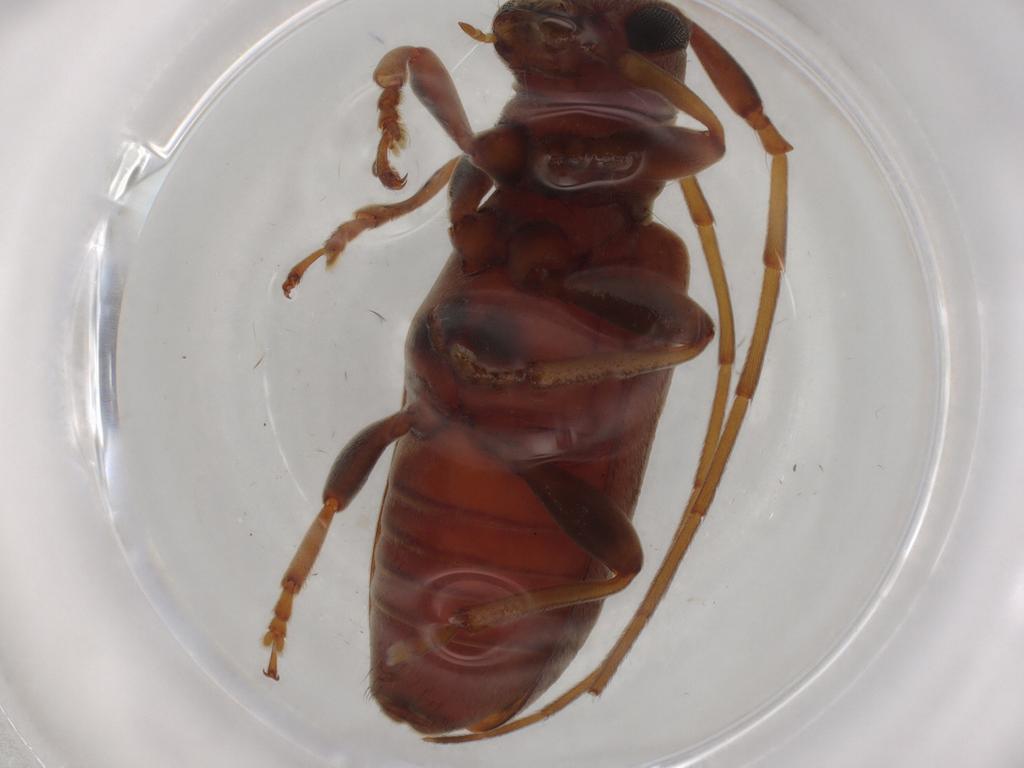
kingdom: Animalia
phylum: Arthropoda
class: Insecta
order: Coleoptera
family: Cerambycidae
